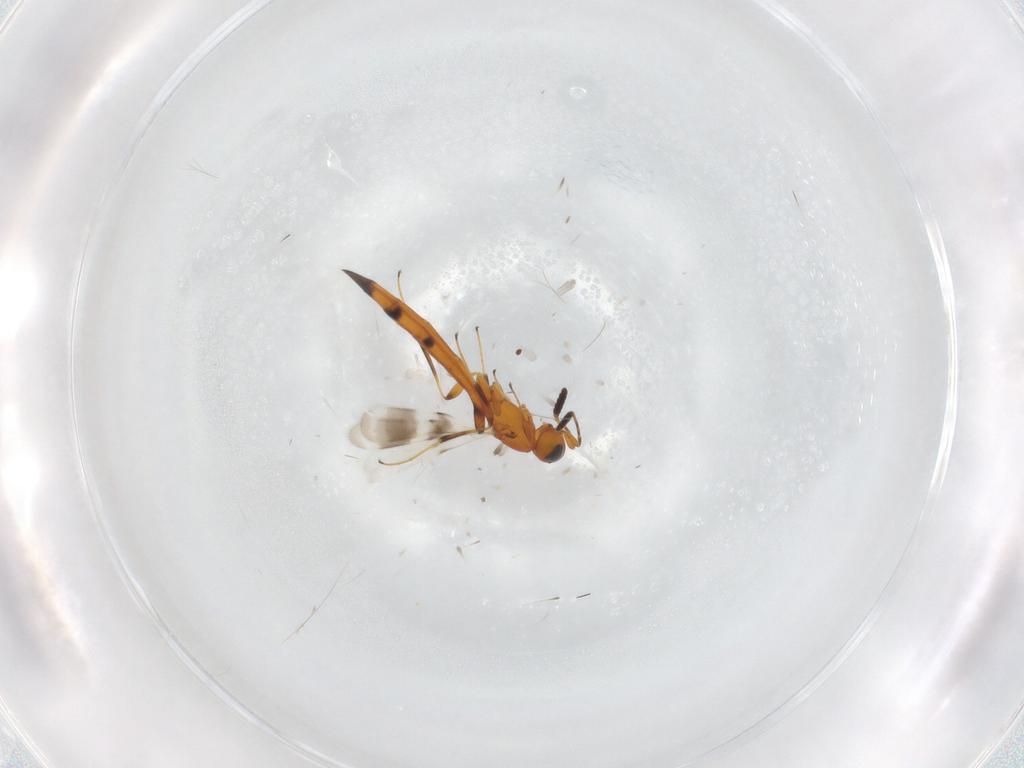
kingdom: Animalia
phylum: Arthropoda
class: Insecta
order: Hymenoptera
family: Scelionidae
